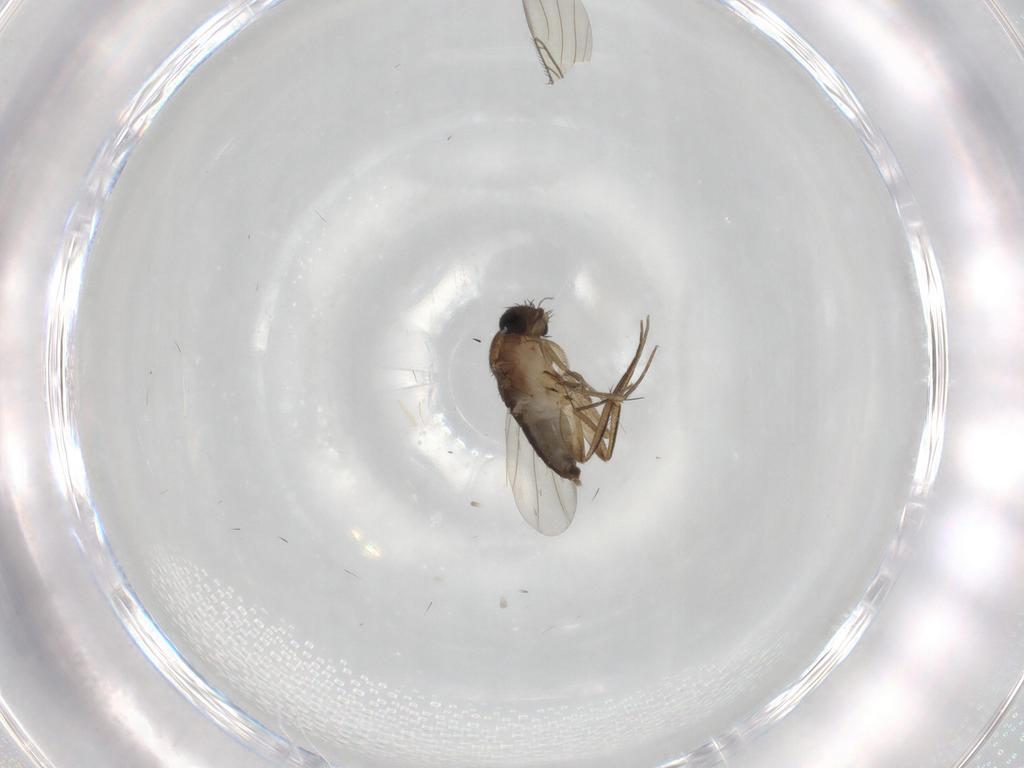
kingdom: Animalia
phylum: Arthropoda
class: Insecta
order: Diptera
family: Phoridae
